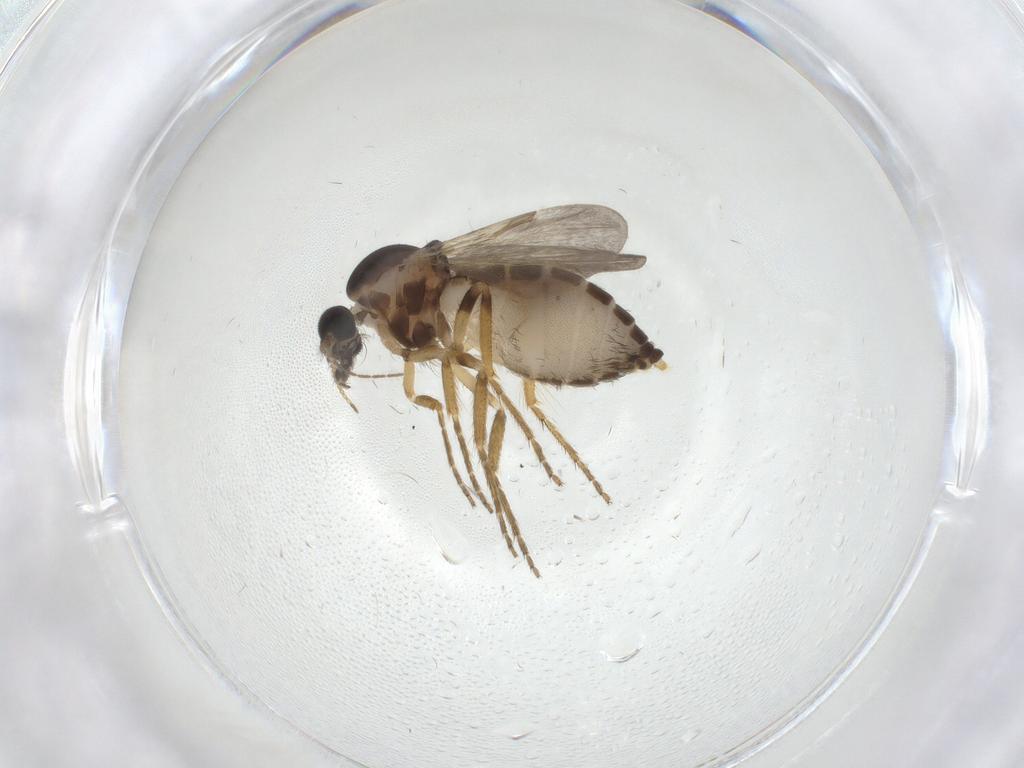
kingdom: Animalia
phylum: Arthropoda
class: Insecta
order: Diptera
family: Ceratopogonidae
